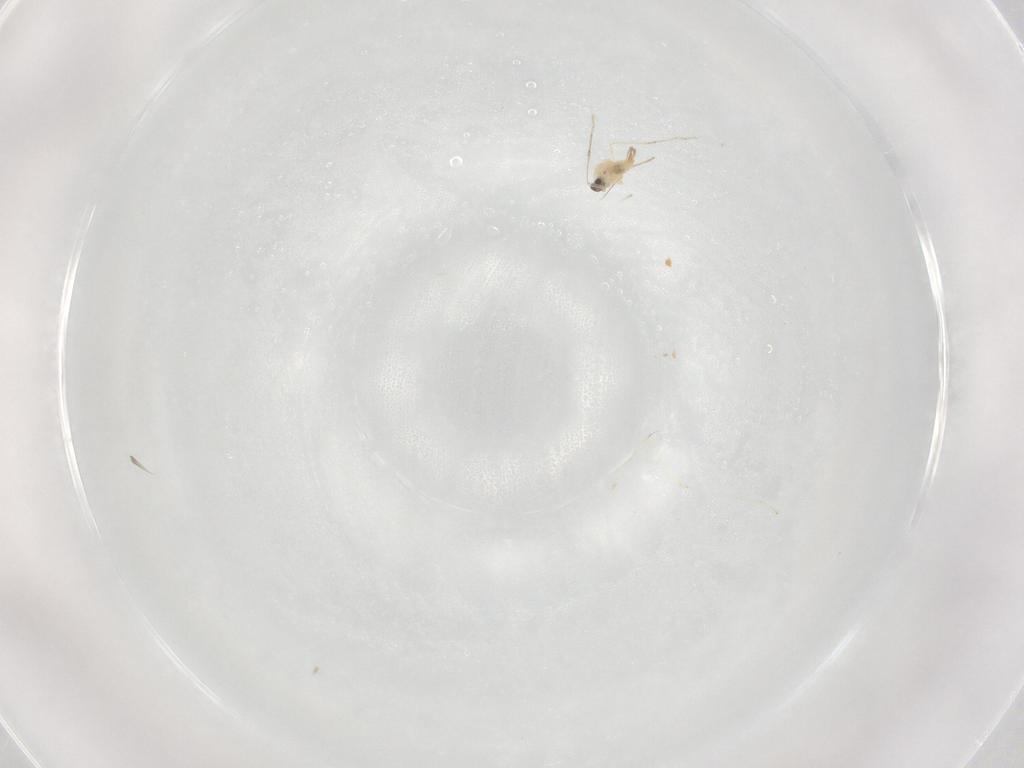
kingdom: Animalia
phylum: Arthropoda
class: Insecta
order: Diptera
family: Cecidomyiidae
